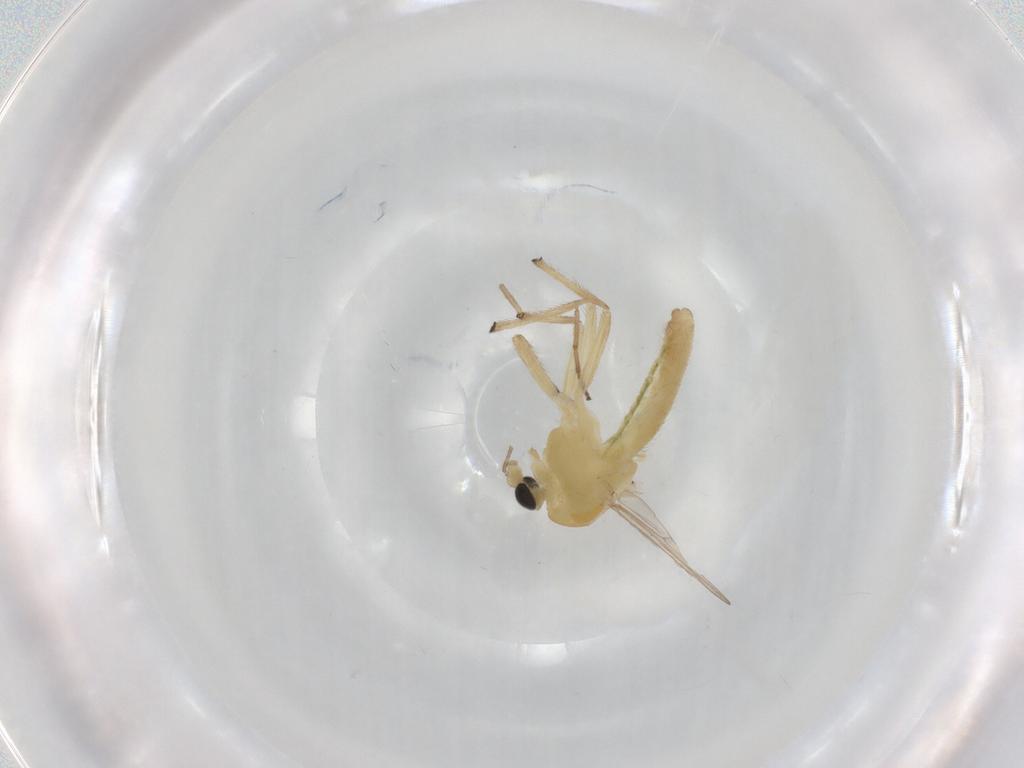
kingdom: Animalia
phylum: Arthropoda
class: Insecta
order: Diptera
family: Chironomidae
